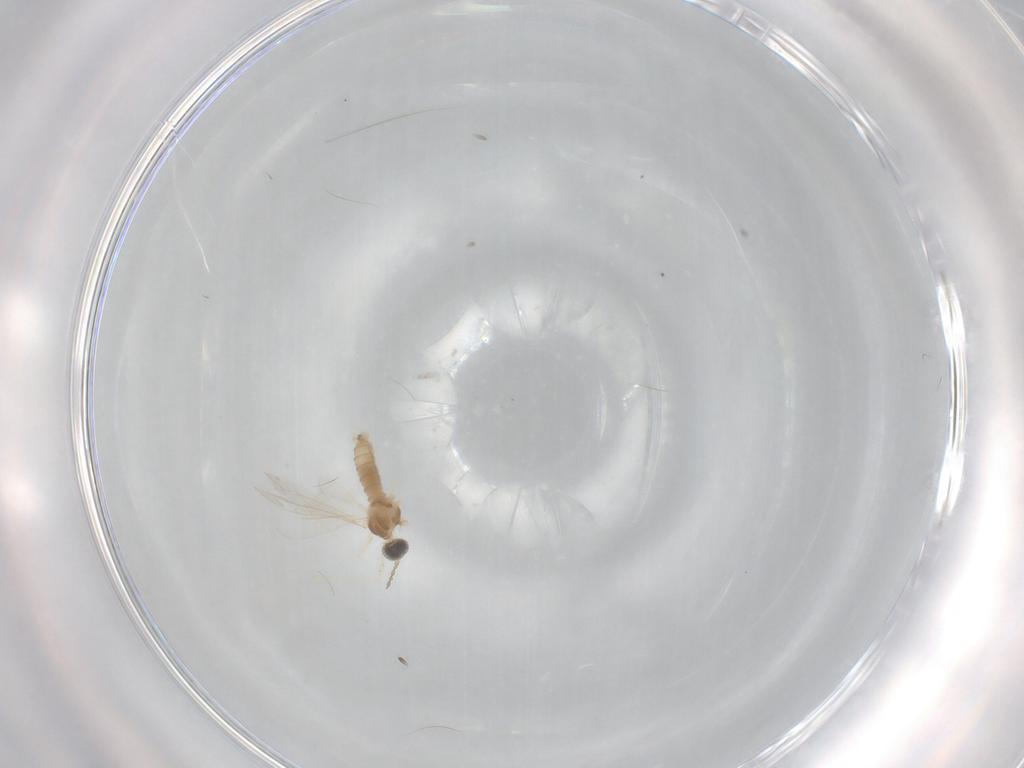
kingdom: Animalia
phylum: Arthropoda
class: Insecta
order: Diptera
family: Cecidomyiidae
